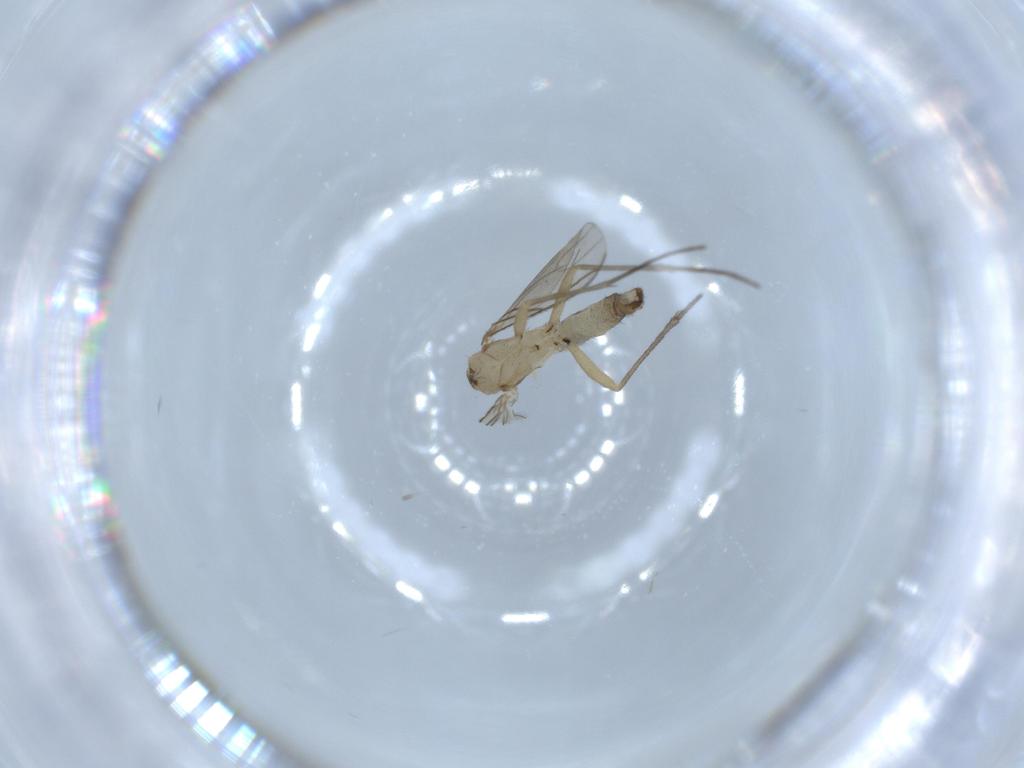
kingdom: Animalia
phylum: Arthropoda
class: Insecta
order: Diptera
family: Sciaridae
